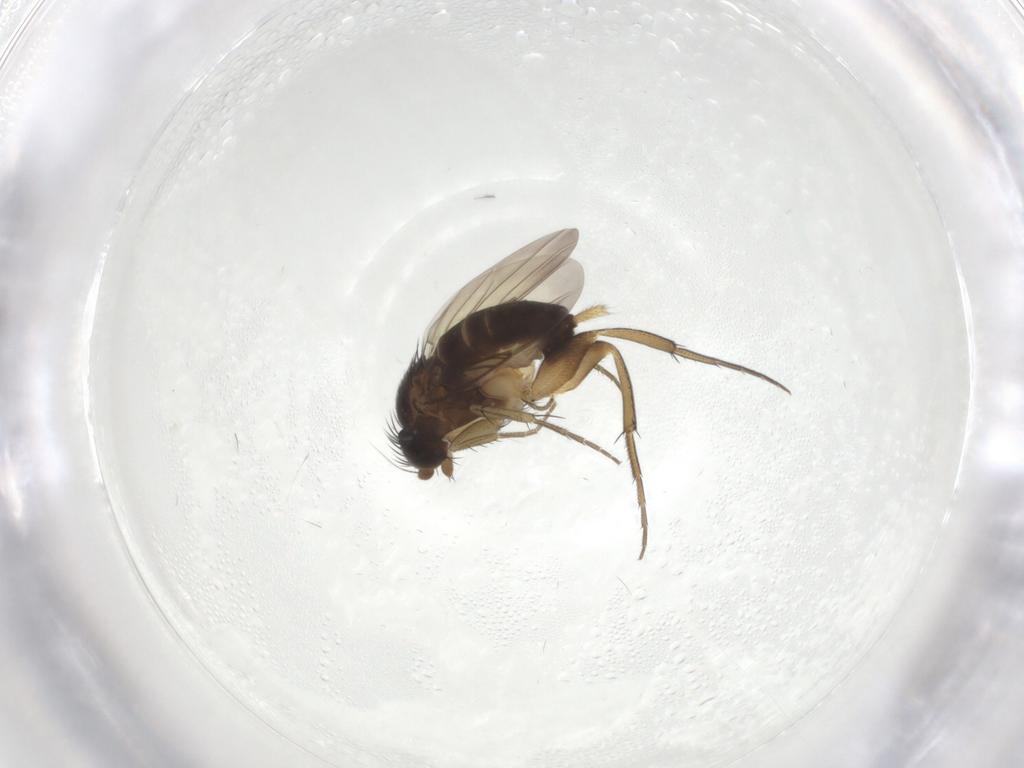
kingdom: Animalia
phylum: Arthropoda
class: Insecta
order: Diptera
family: Phoridae
